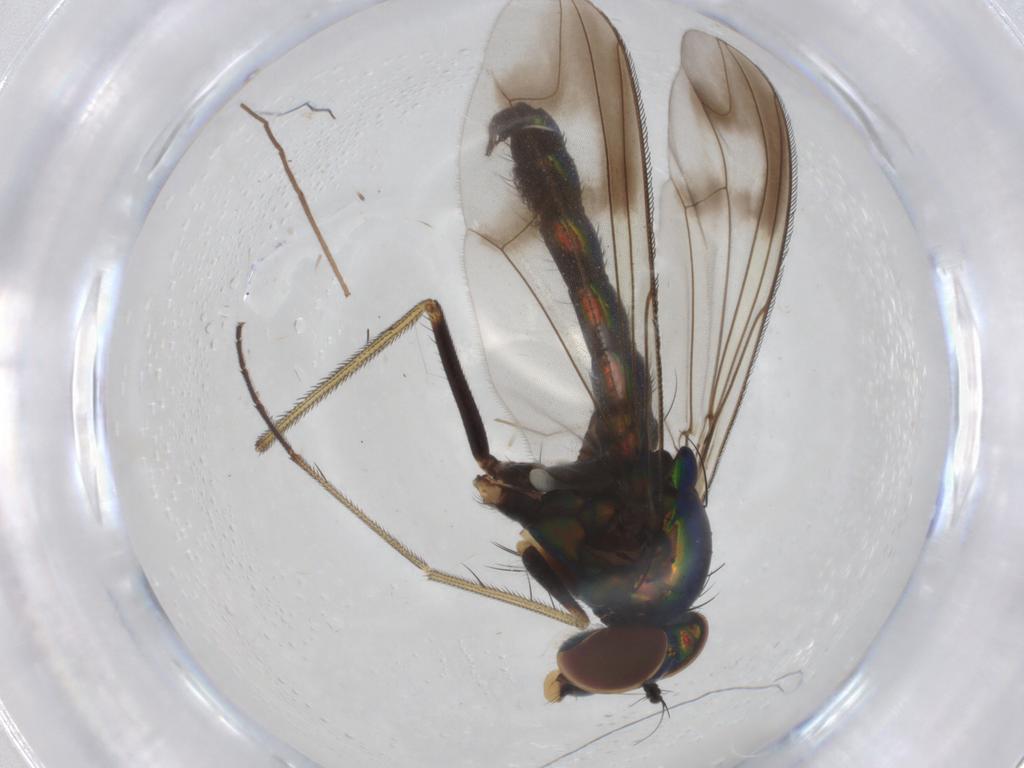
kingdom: Animalia
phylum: Arthropoda
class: Insecta
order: Diptera
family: Dolichopodidae
